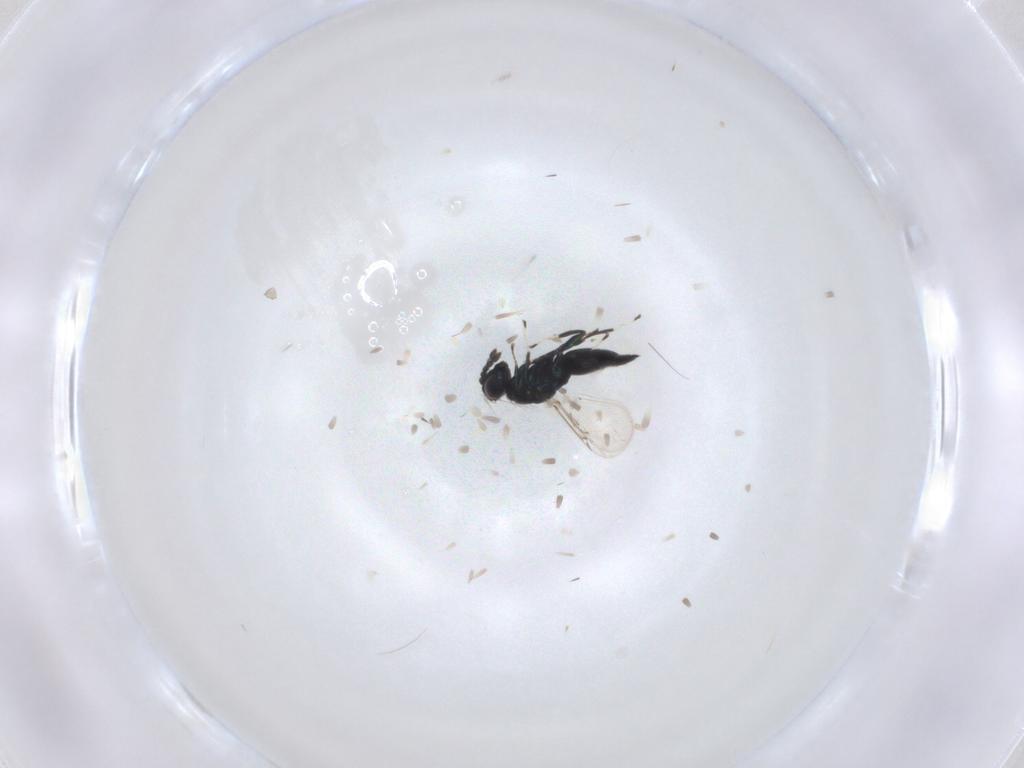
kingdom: Animalia
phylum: Arthropoda
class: Insecta
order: Hymenoptera
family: Eulophidae
